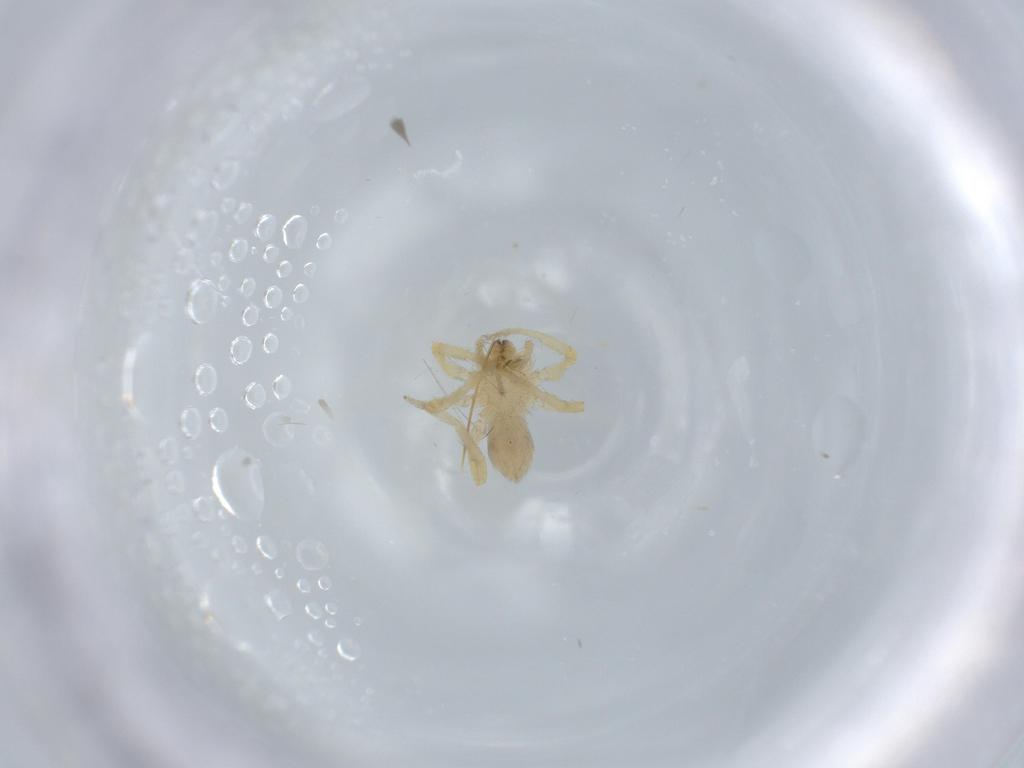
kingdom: Animalia
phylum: Arthropoda
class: Arachnida
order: Araneae
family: Oonopidae
